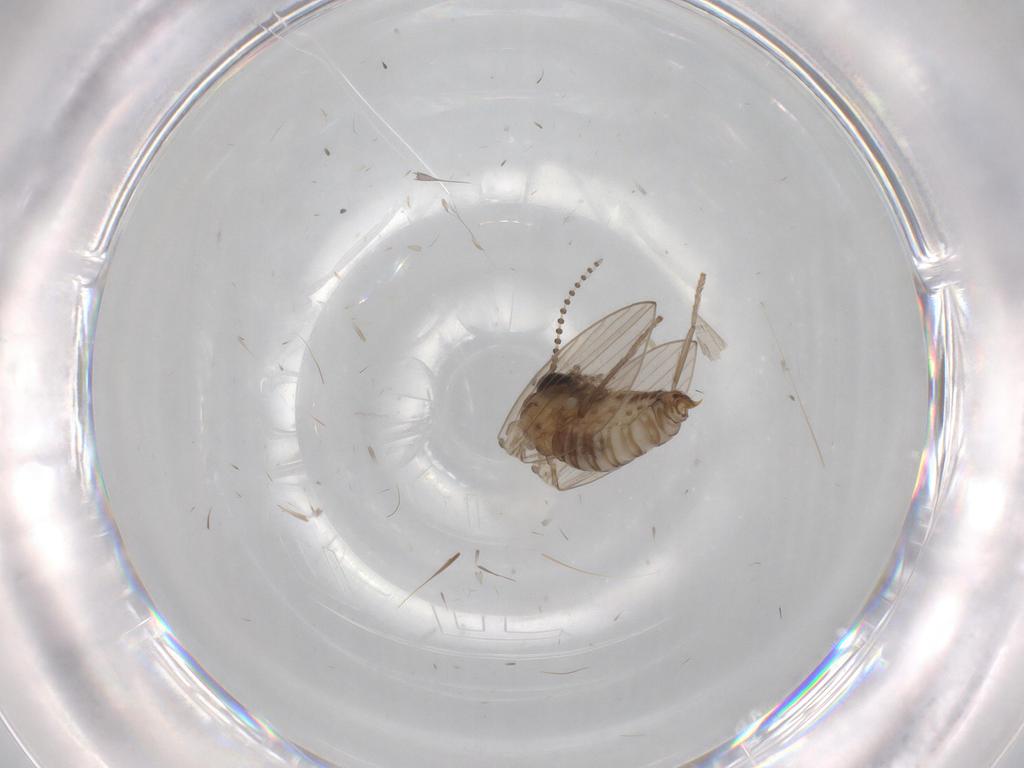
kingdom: Animalia
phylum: Arthropoda
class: Insecta
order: Diptera
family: Psychodidae
